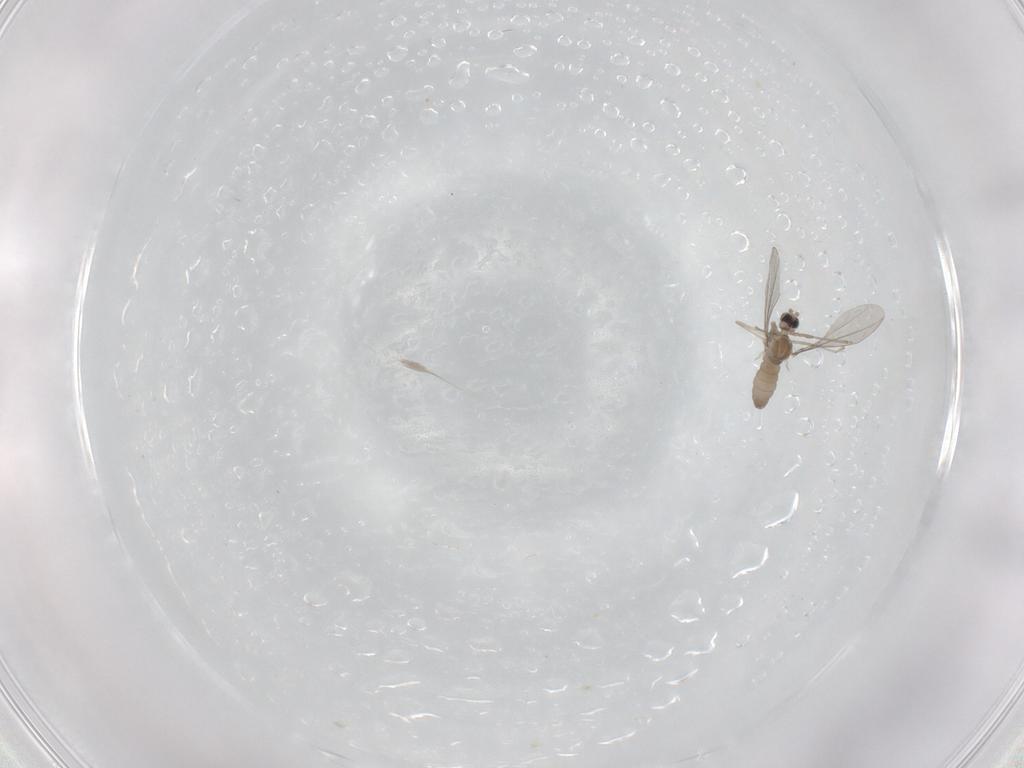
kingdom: Animalia
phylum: Arthropoda
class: Insecta
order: Diptera
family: Cecidomyiidae
